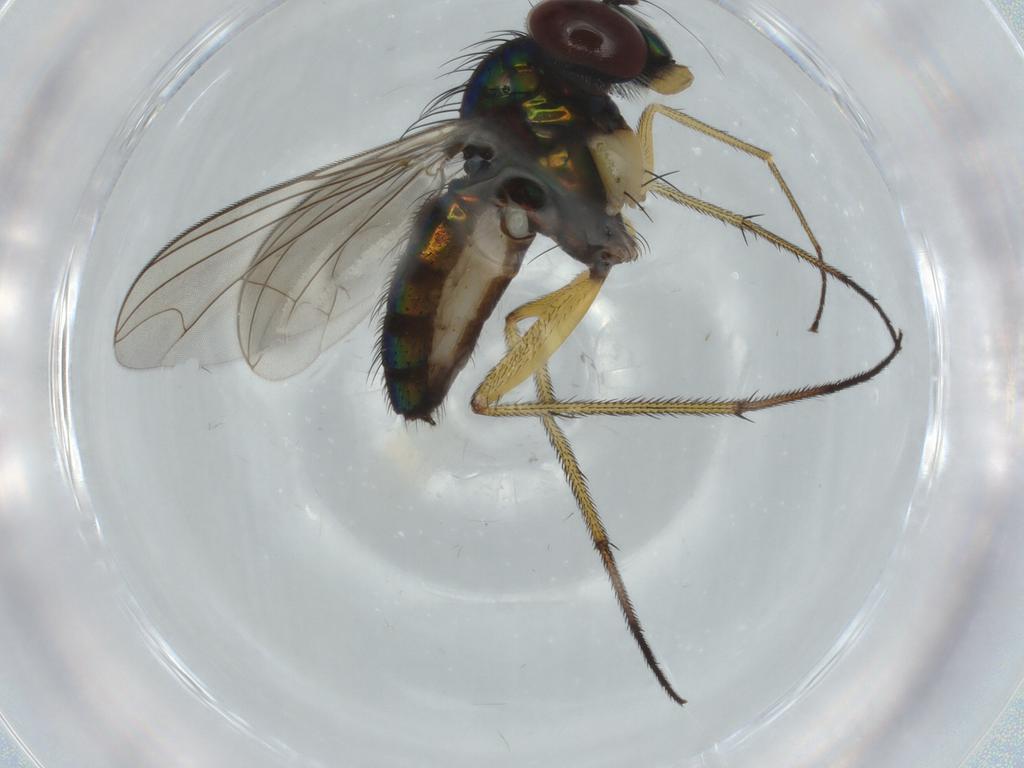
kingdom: Animalia
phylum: Arthropoda
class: Insecta
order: Diptera
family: Dolichopodidae
